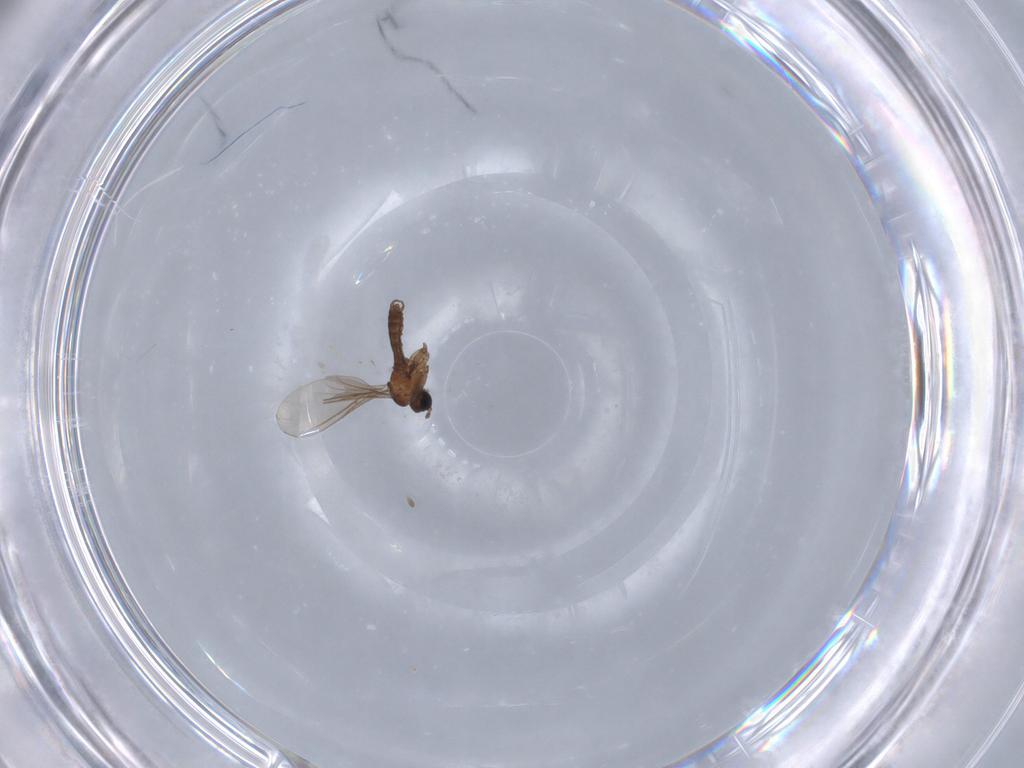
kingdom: Animalia
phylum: Arthropoda
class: Insecta
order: Diptera
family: Sciaridae
